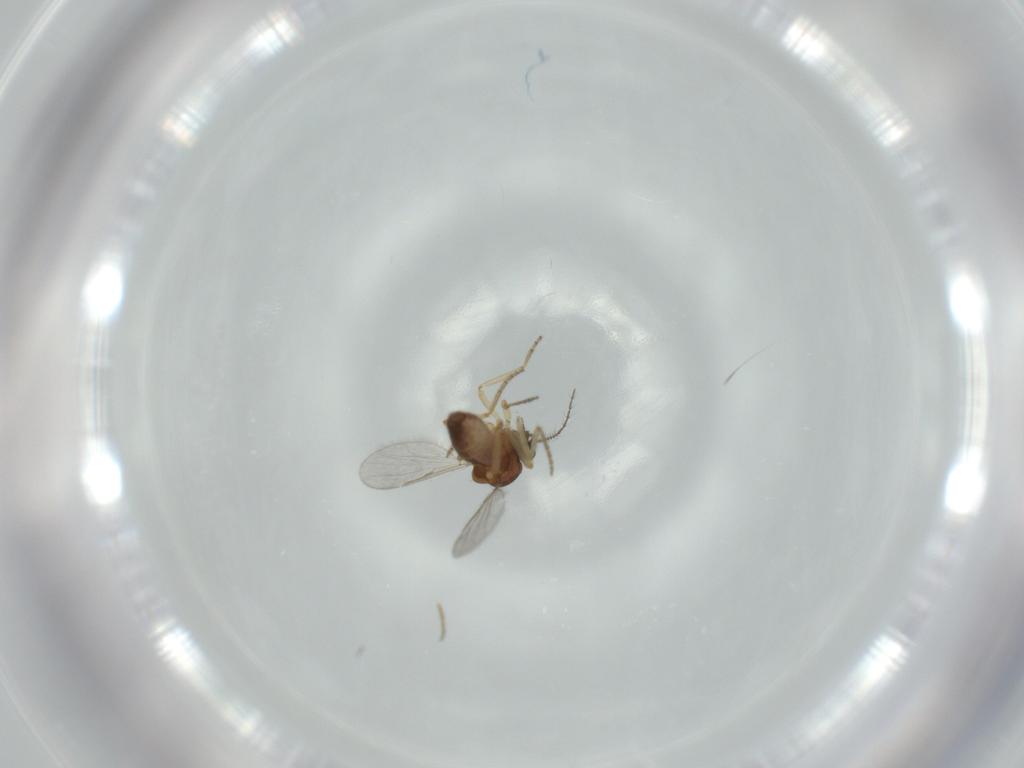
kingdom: Animalia
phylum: Arthropoda
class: Insecta
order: Diptera
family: Ceratopogonidae
